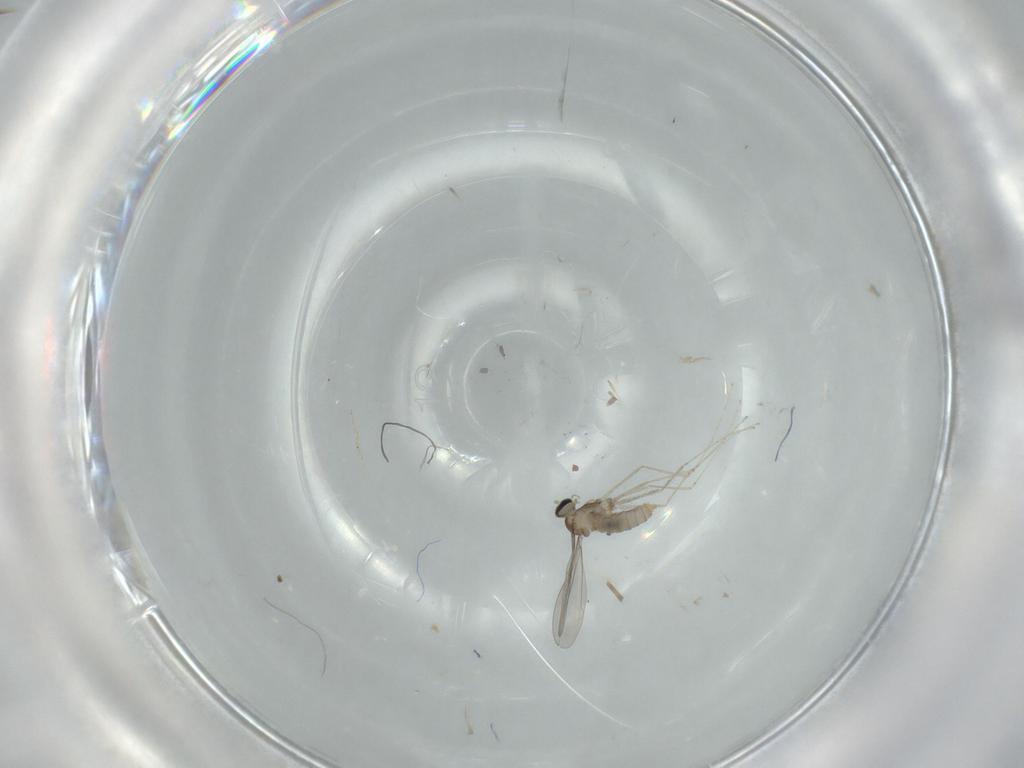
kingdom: Animalia
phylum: Arthropoda
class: Insecta
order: Diptera
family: Cecidomyiidae
